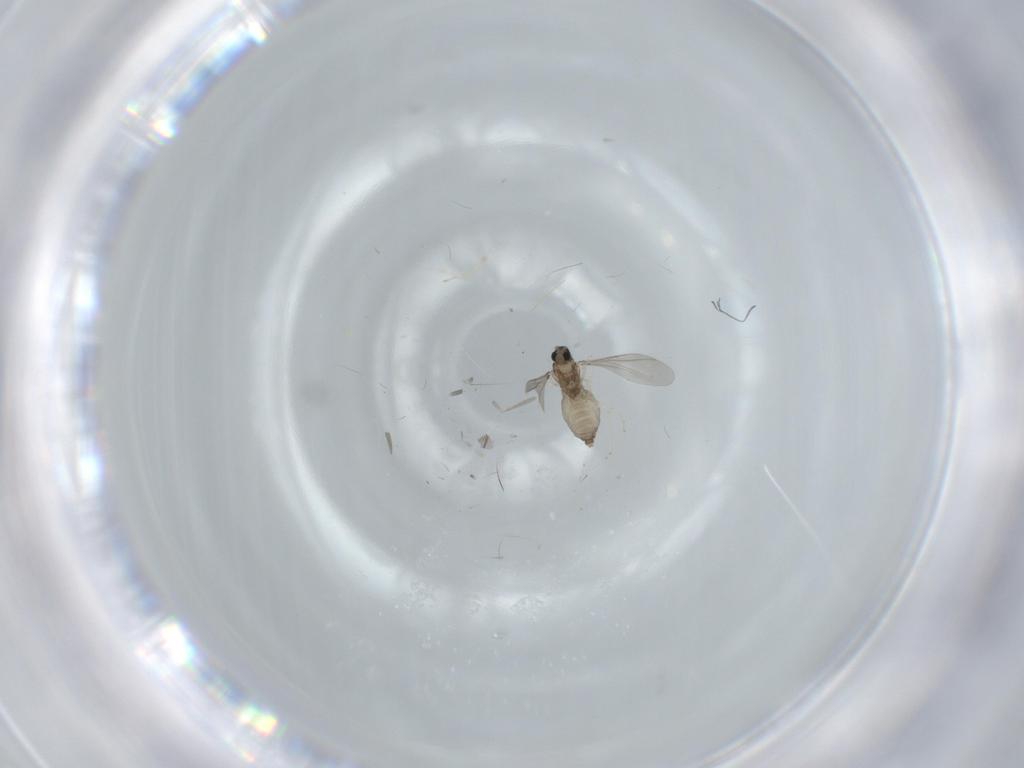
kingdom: Animalia
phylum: Arthropoda
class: Insecta
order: Diptera
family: Cecidomyiidae
